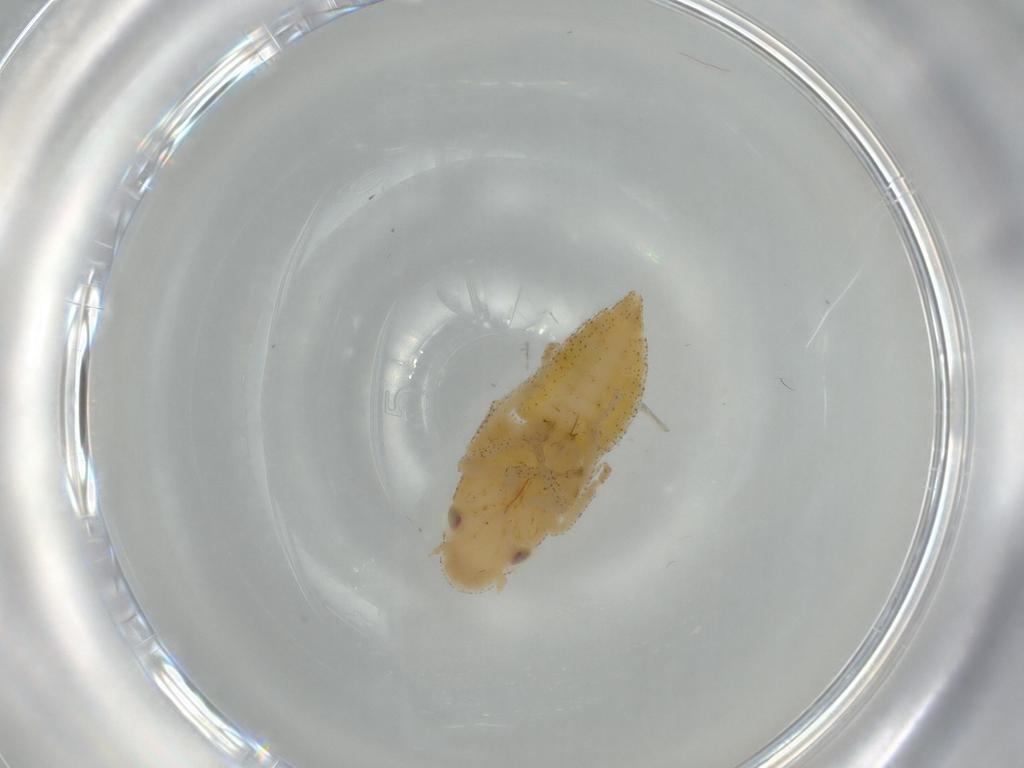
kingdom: Animalia
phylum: Arthropoda
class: Insecta
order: Hemiptera
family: Cicadellidae
